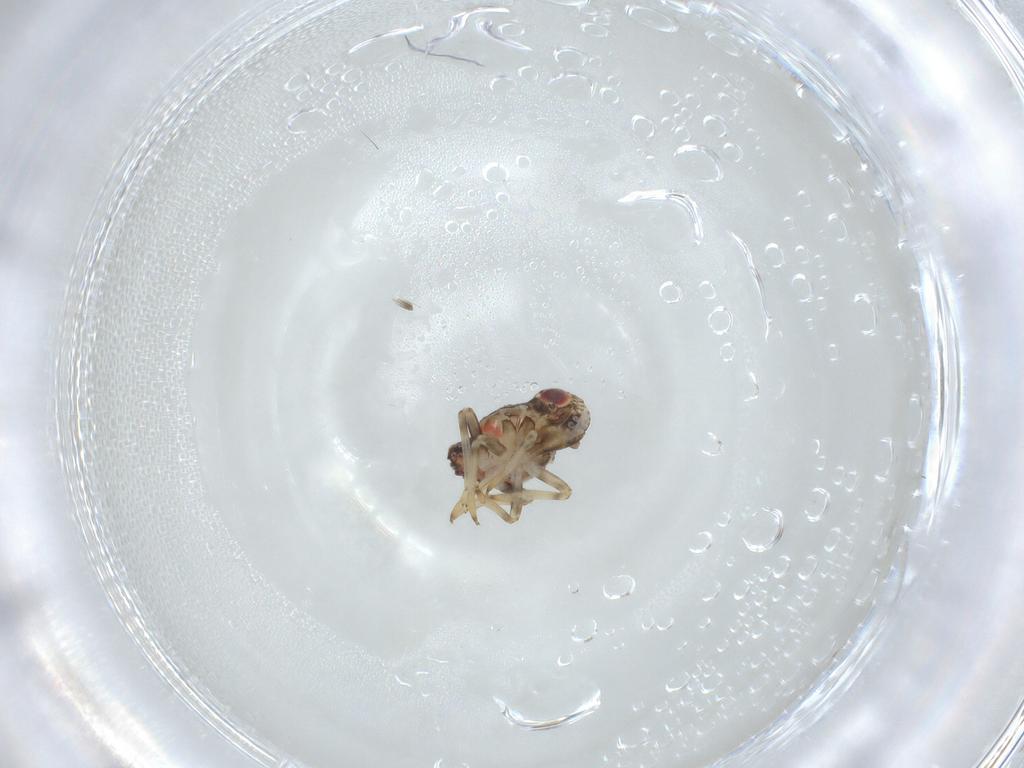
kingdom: Animalia
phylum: Arthropoda
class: Insecta
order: Hemiptera
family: Tropiduchidae
